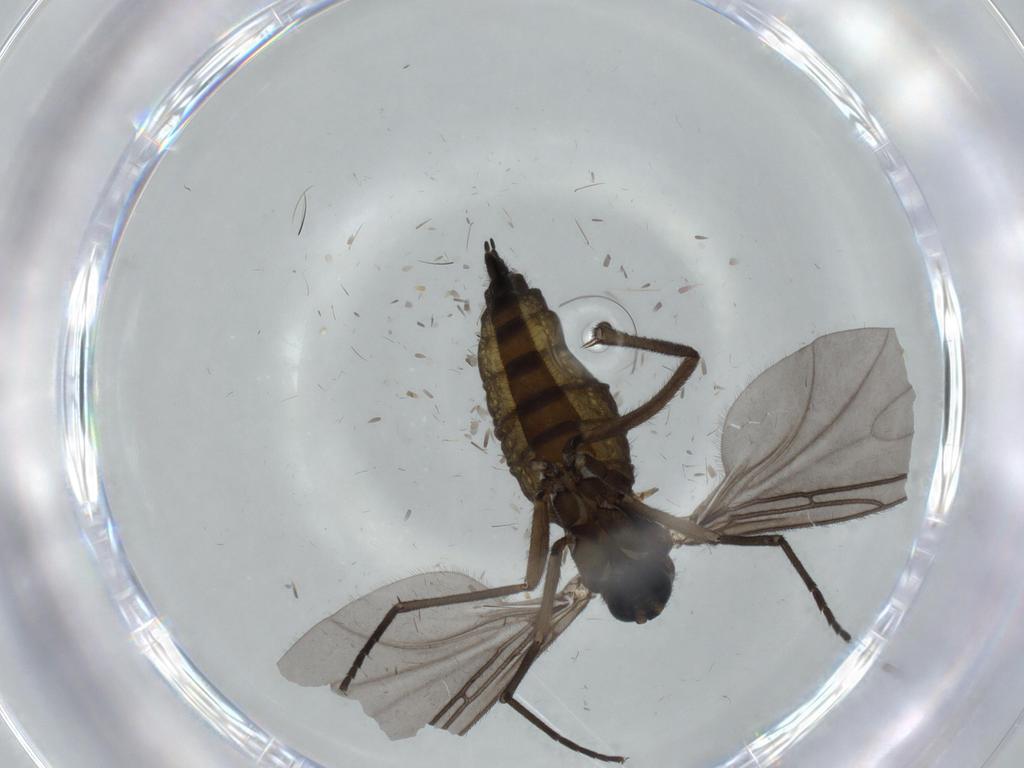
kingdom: Animalia
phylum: Arthropoda
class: Insecta
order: Diptera
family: Sciaridae
